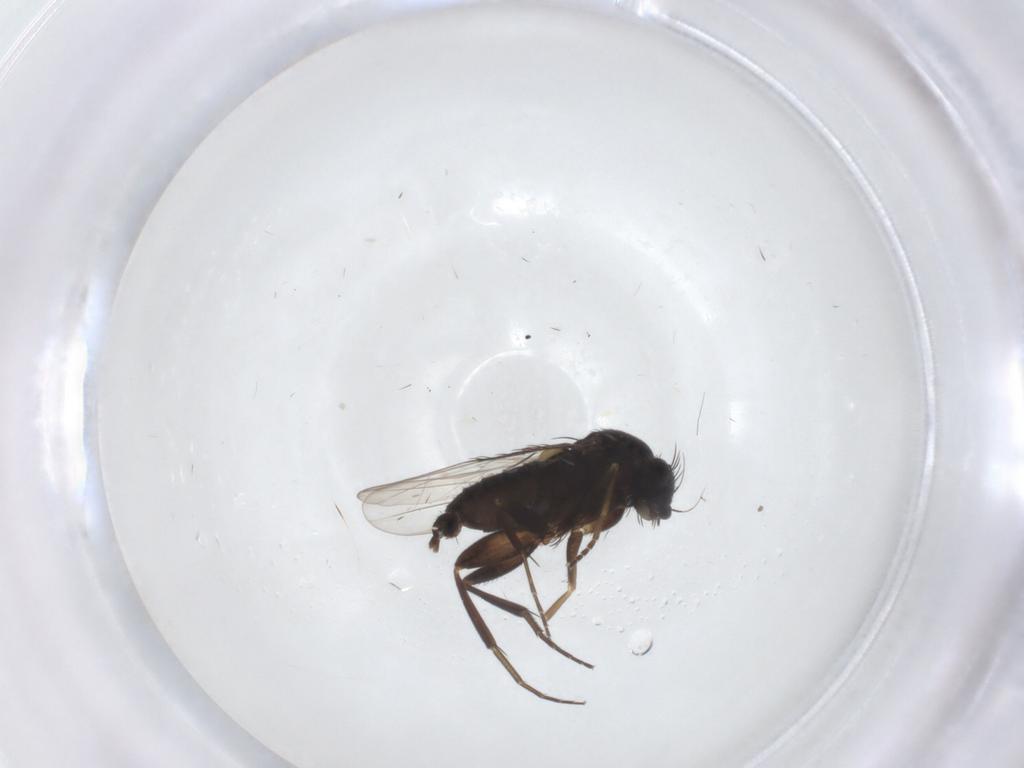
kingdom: Animalia
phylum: Arthropoda
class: Insecta
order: Diptera
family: Phoridae
